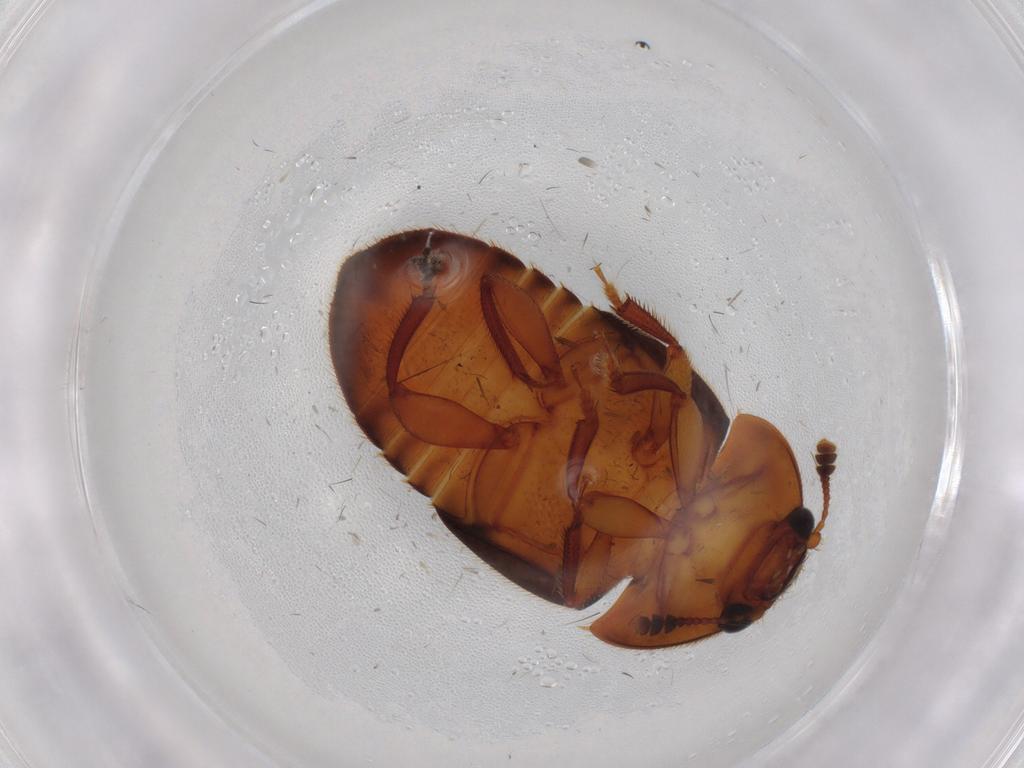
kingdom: Animalia
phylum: Arthropoda
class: Insecta
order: Coleoptera
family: Nitidulidae
